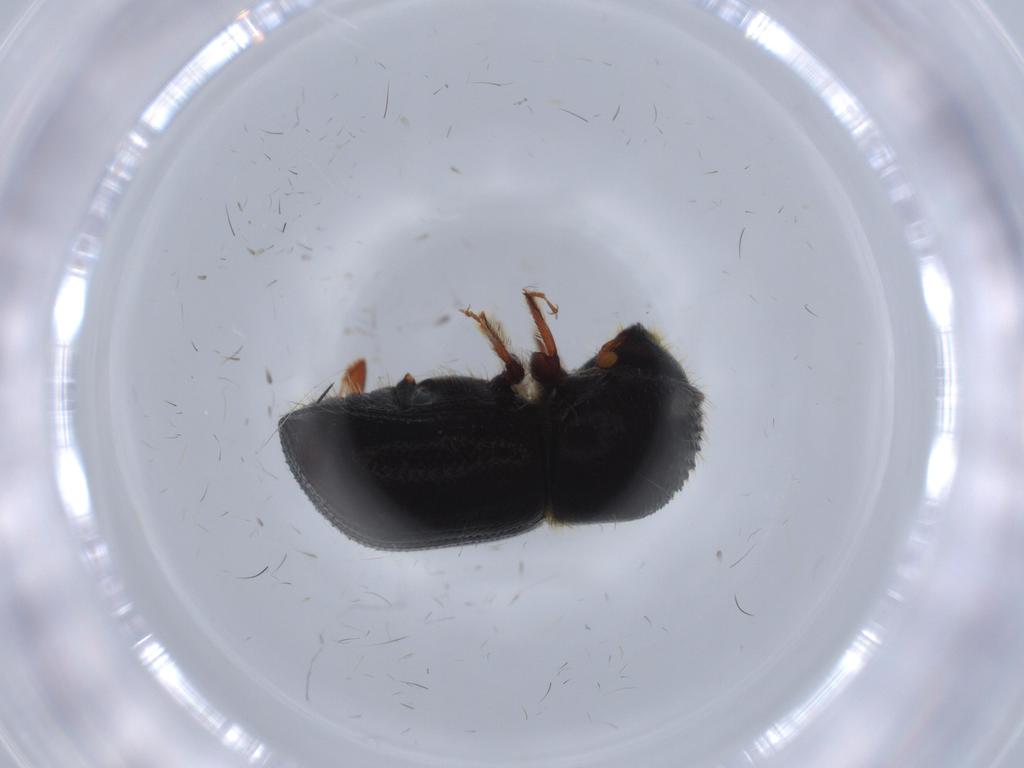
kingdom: Animalia
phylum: Arthropoda
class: Insecta
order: Coleoptera
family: Curculionidae
